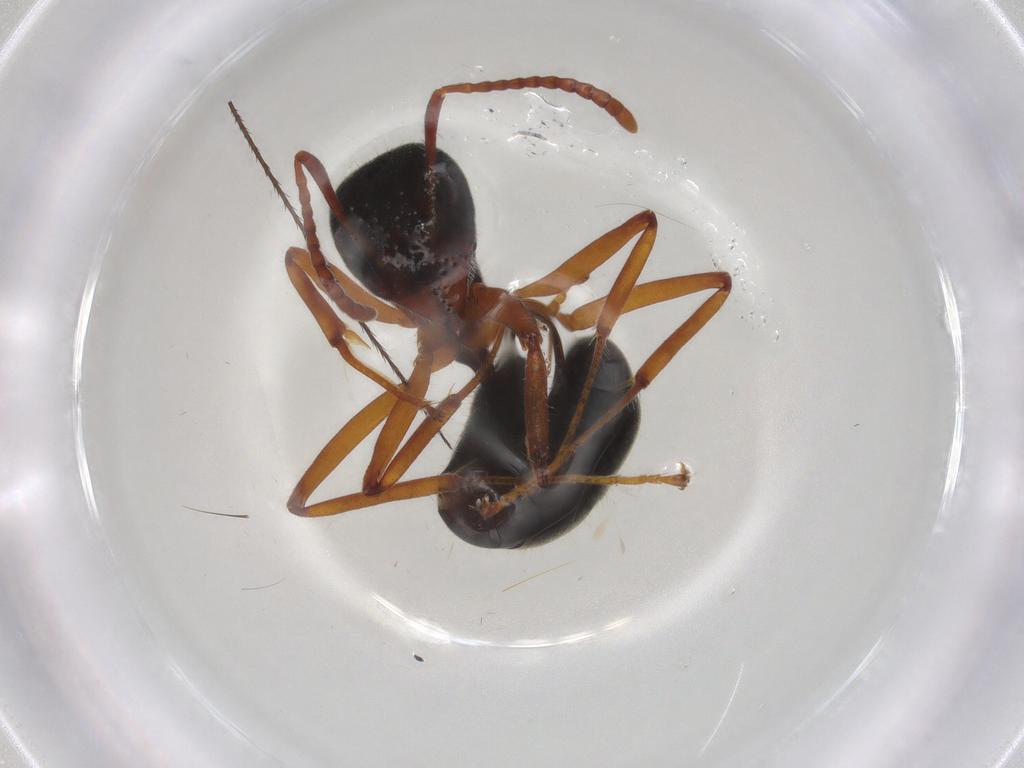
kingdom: Animalia
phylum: Arthropoda
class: Insecta
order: Hymenoptera
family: Formicidae
